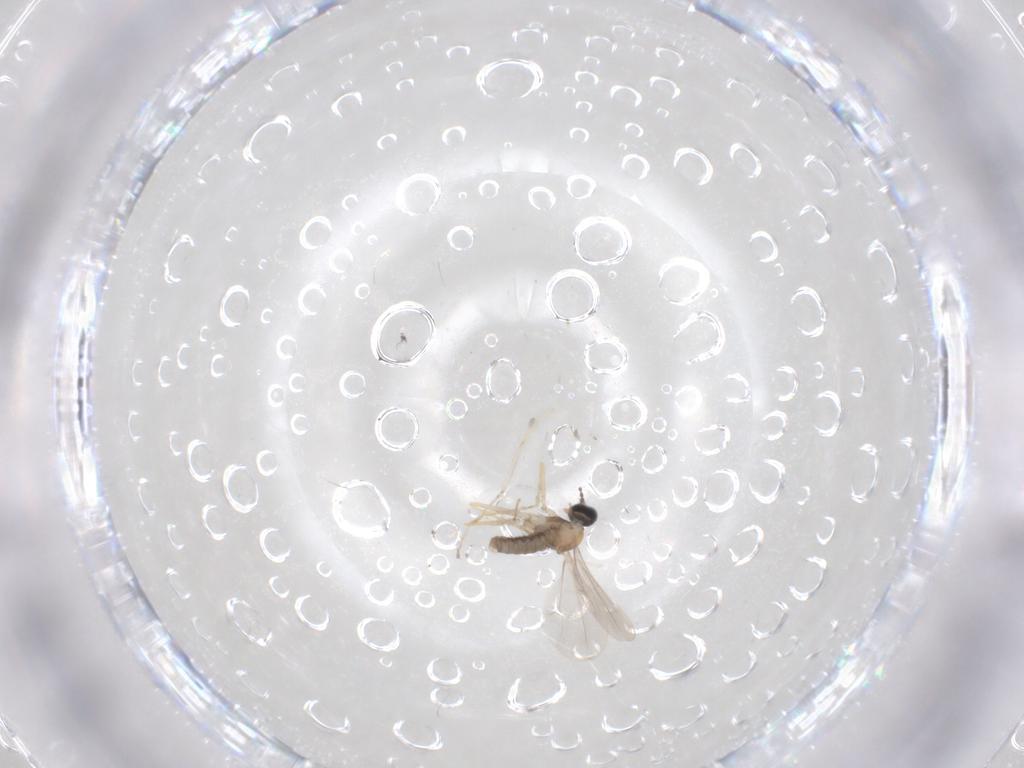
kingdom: Animalia
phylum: Arthropoda
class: Insecta
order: Diptera
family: Cecidomyiidae
